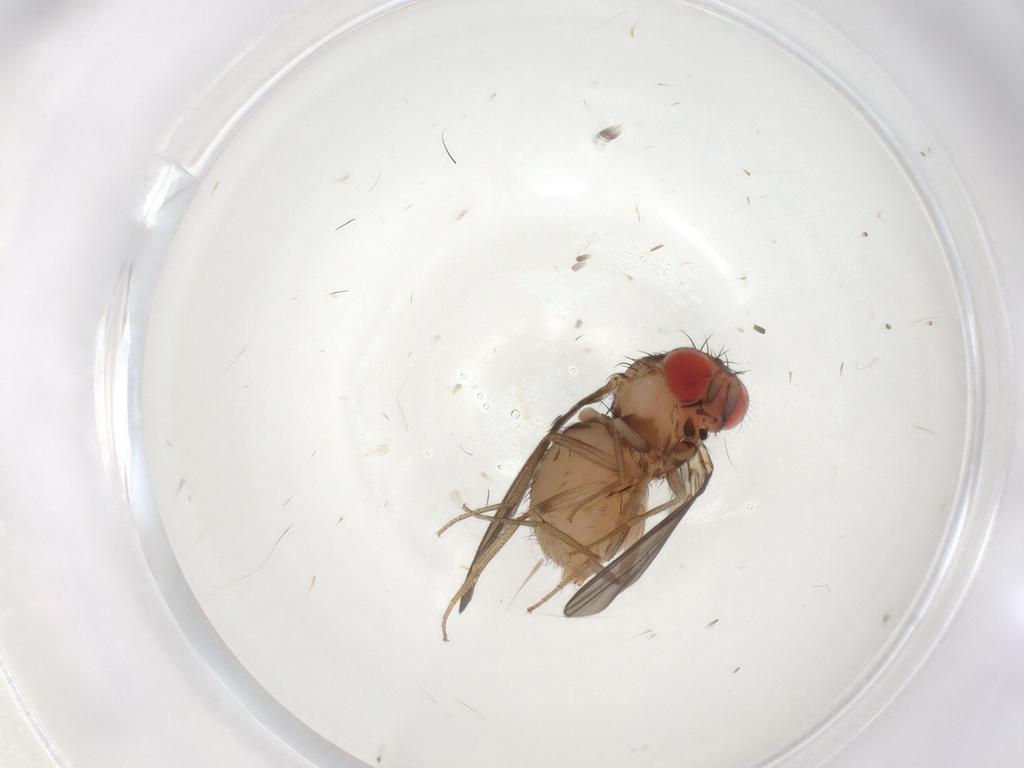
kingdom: Animalia
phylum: Arthropoda
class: Insecta
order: Diptera
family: Drosophilidae
